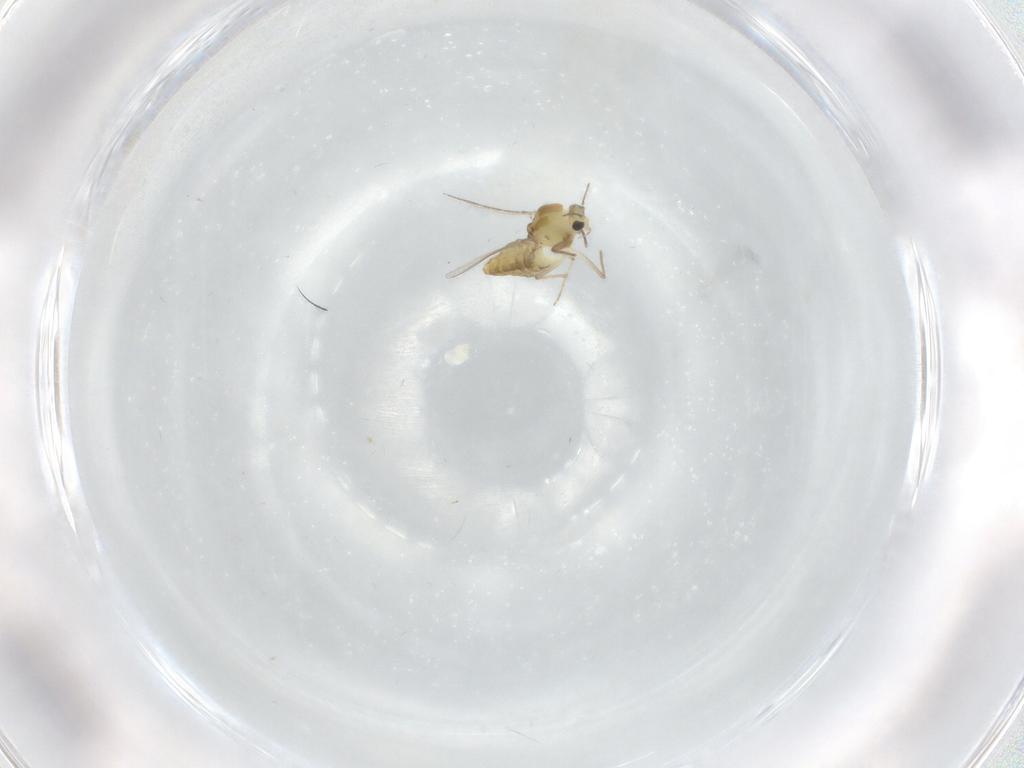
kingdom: Animalia
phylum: Arthropoda
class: Insecta
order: Diptera
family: Chironomidae
